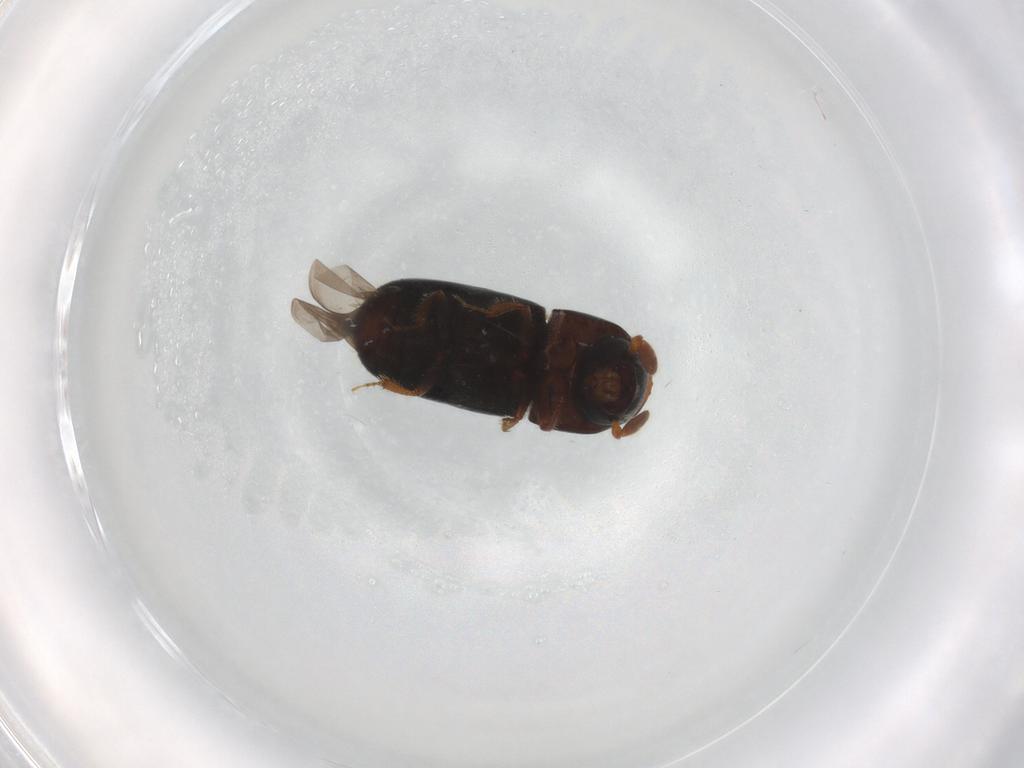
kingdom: Animalia
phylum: Arthropoda
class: Insecta
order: Coleoptera
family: Curculionidae
